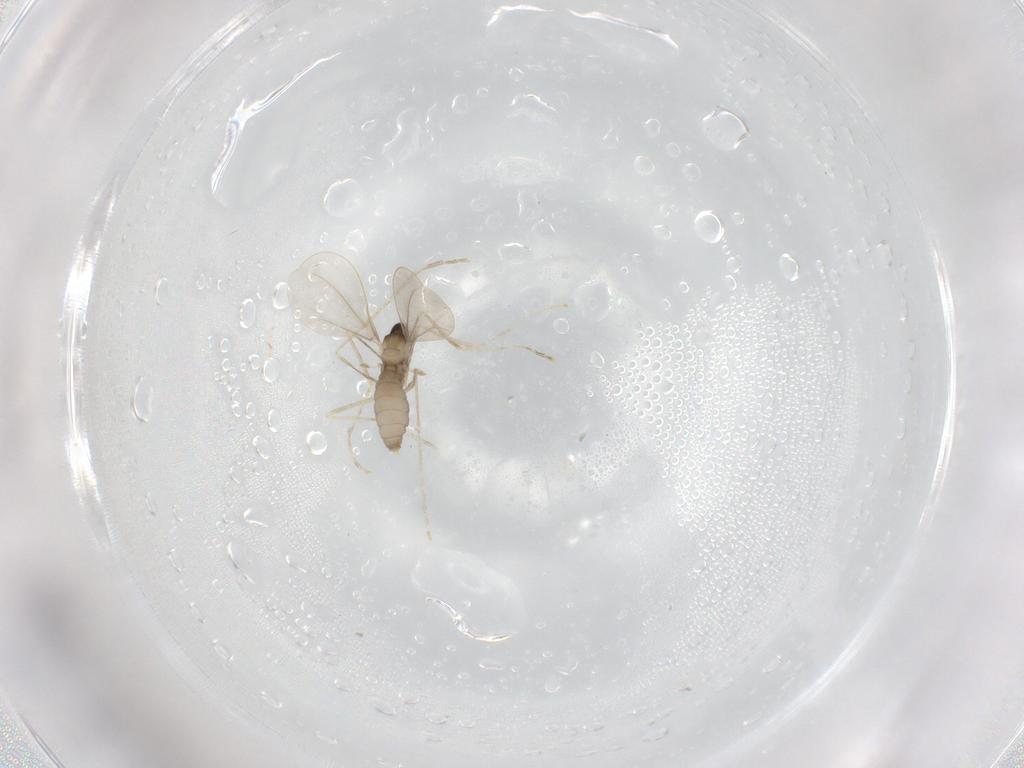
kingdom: Animalia
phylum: Arthropoda
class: Insecta
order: Diptera
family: Cecidomyiidae
